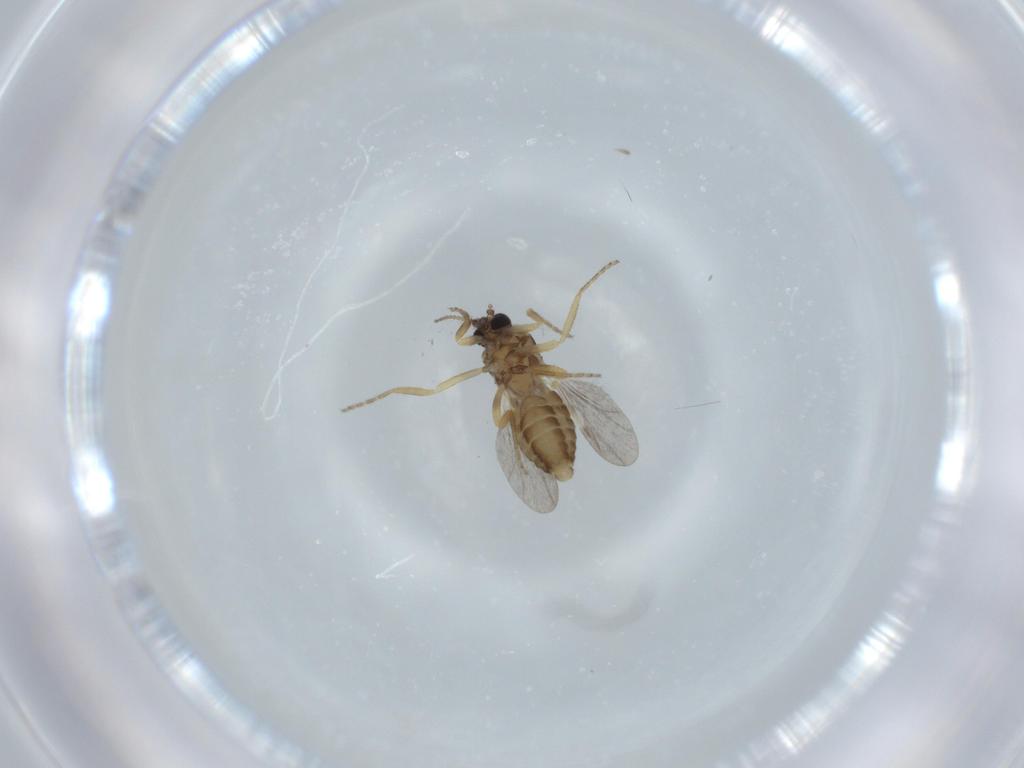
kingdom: Animalia
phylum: Arthropoda
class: Insecta
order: Diptera
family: Ceratopogonidae
